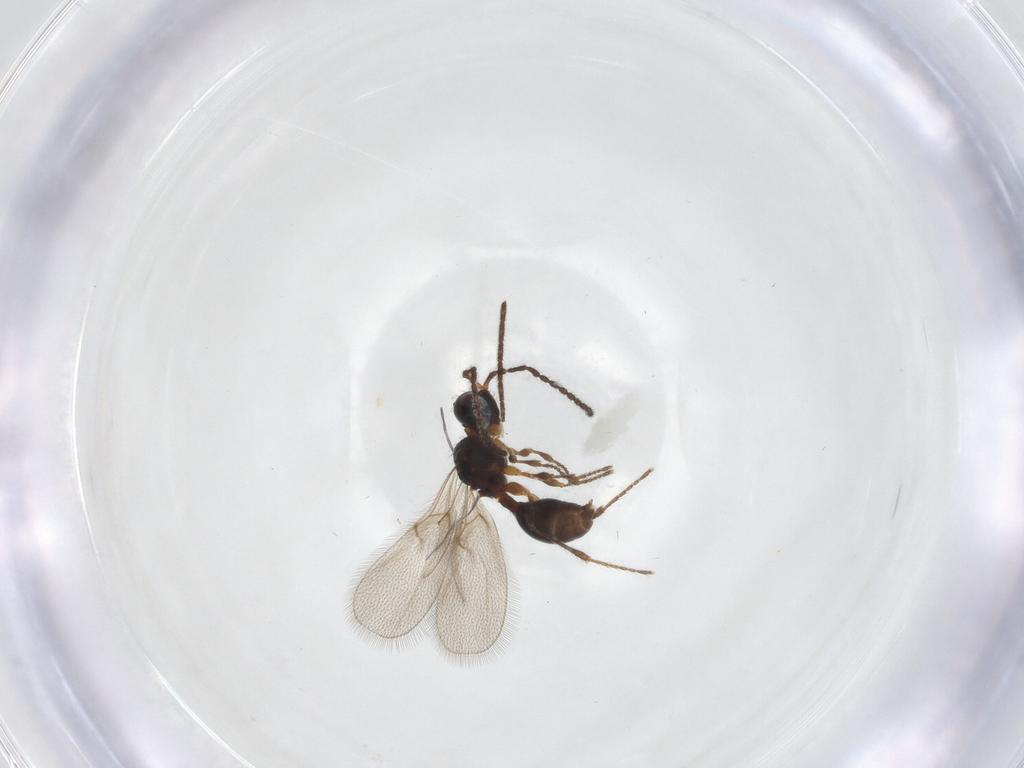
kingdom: Animalia
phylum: Arthropoda
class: Insecta
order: Hymenoptera
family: Diapriidae
